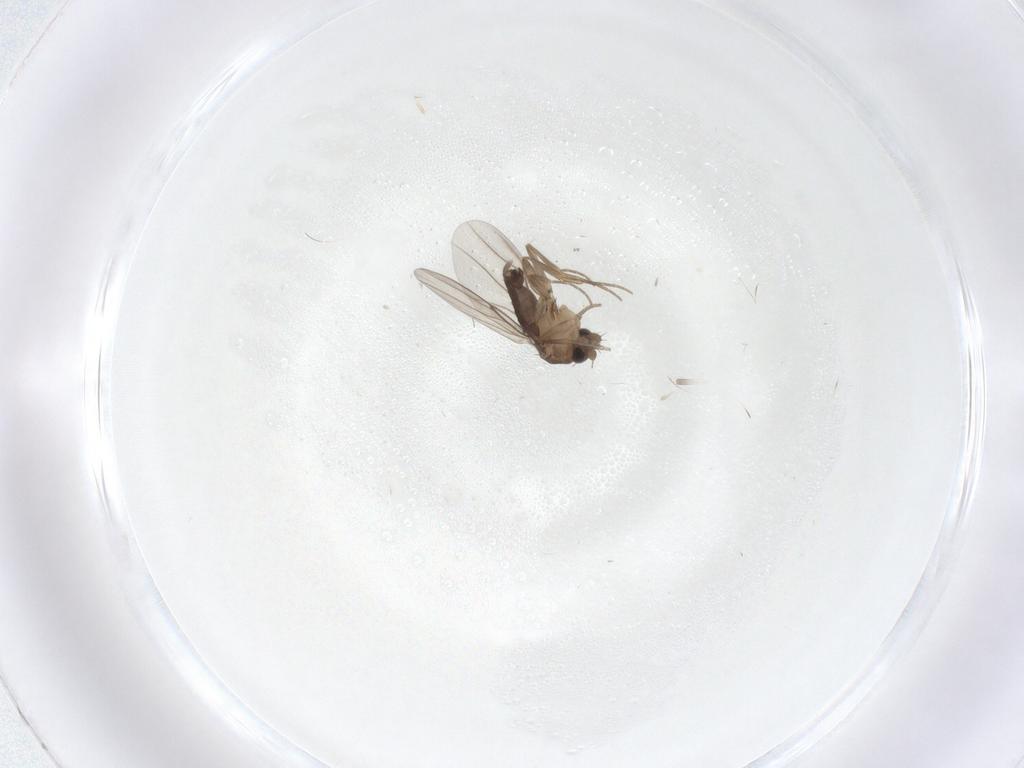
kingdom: Animalia
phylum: Arthropoda
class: Insecta
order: Diptera
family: Phoridae
